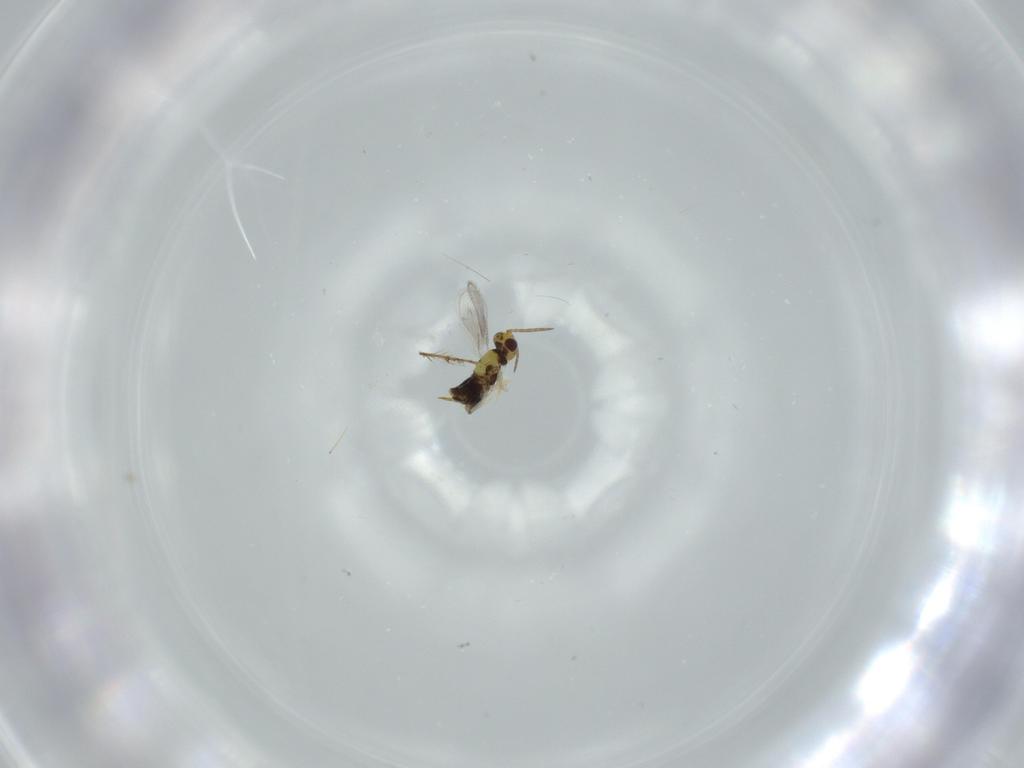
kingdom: Animalia
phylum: Arthropoda
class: Insecta
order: Hymenoptera
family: Aphelinidae
